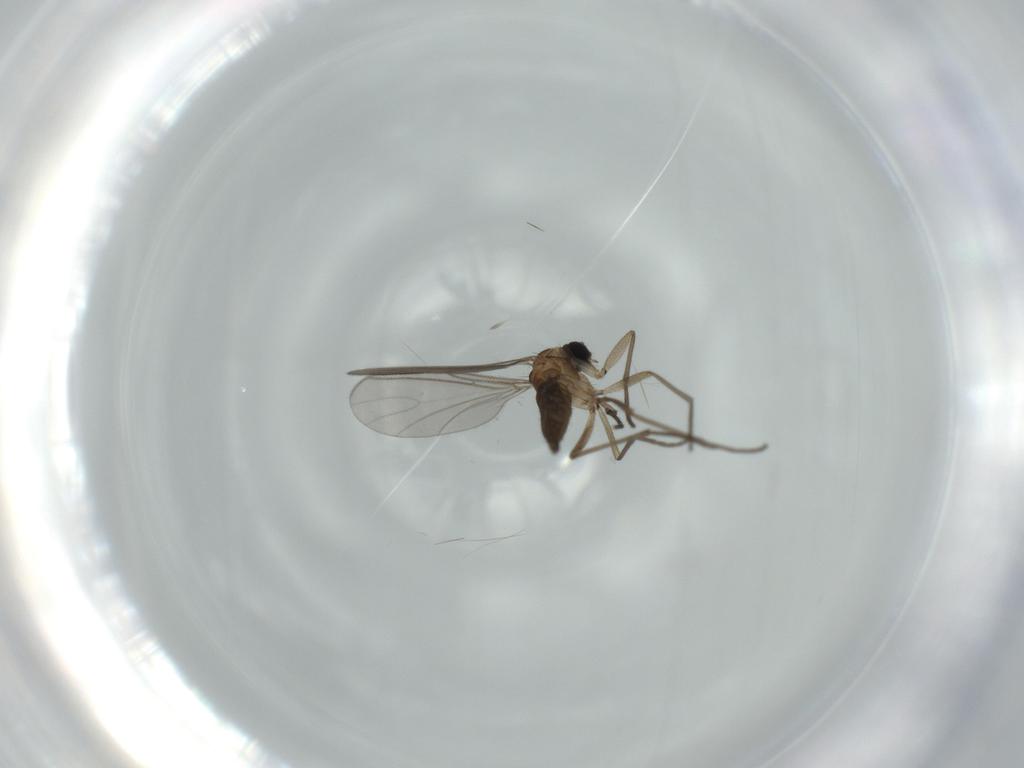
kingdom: Animalia
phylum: Arthropoda
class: Insecta
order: Diptera
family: Sciaridae
